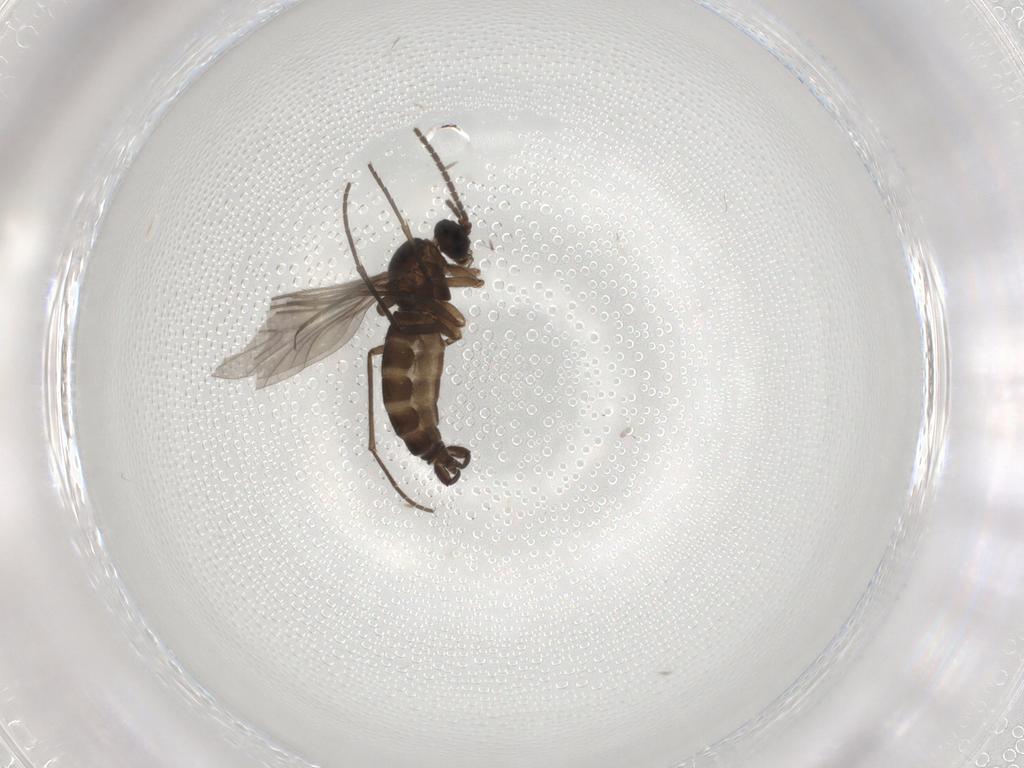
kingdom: Animalia
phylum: Arthropoda
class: Insecta
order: Diptera
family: Sciaridae
